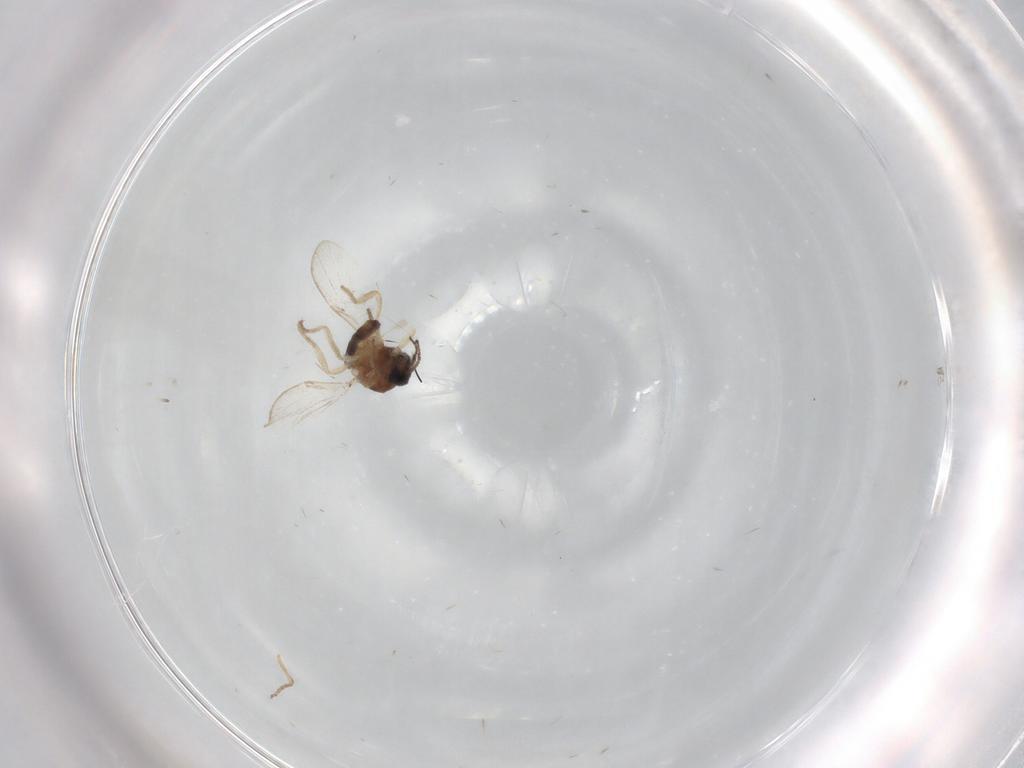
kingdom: Animalia
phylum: Arthropoda
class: Insecta
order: Diptera
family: Ceratopogonidae
